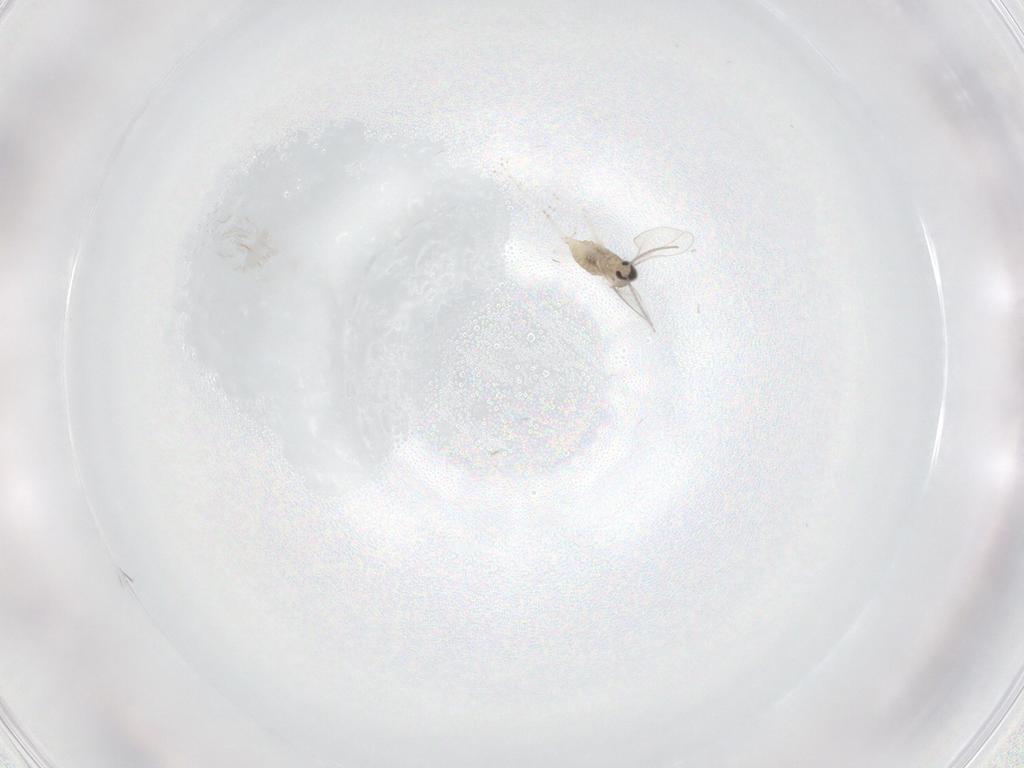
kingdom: Animalia
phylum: Arthropoda
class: Insecta
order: Diptera
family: Cecidomyiidae
